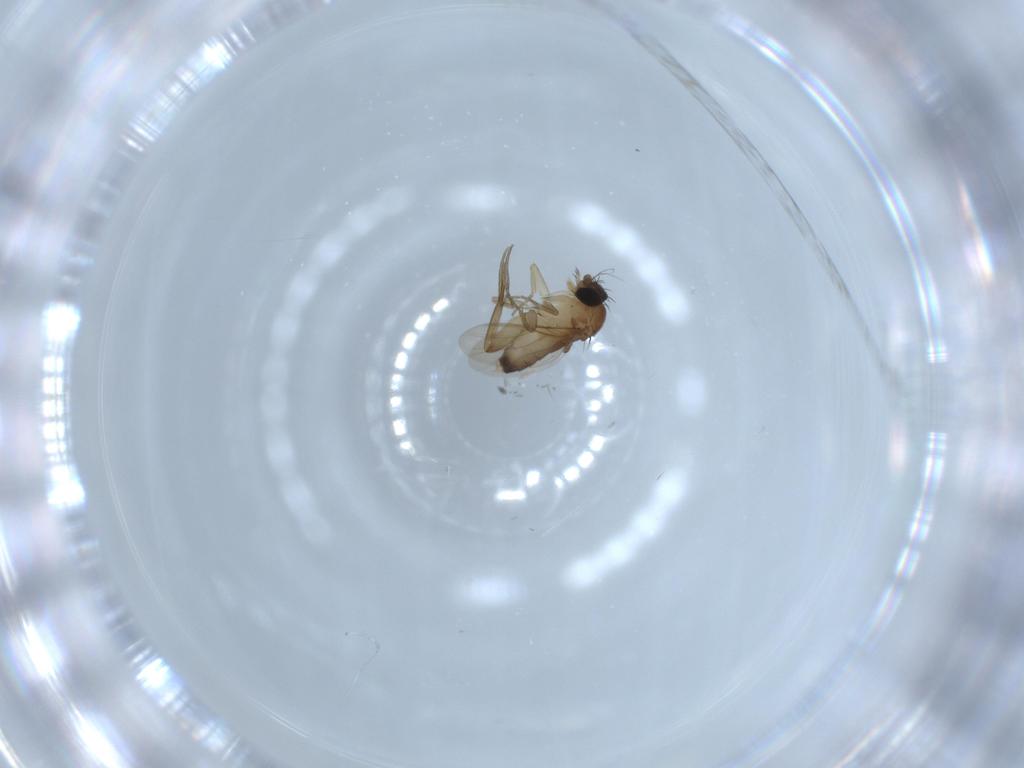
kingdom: Animalia
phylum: Arthropoda
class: Insecta
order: Diptera
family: Phoridae
